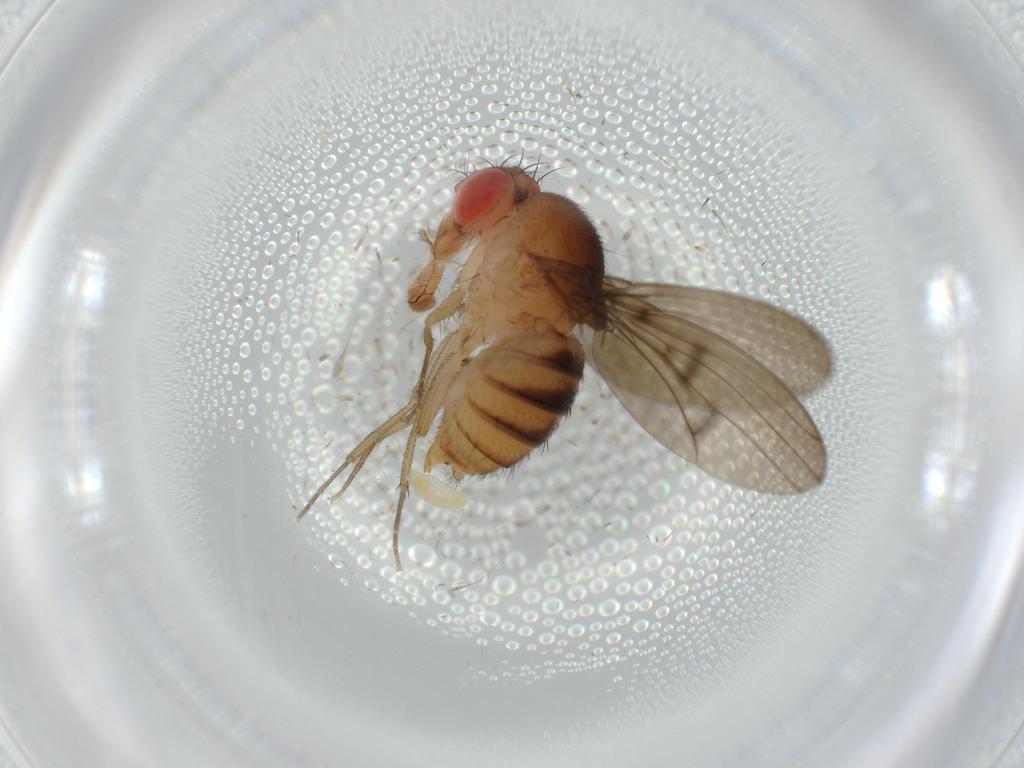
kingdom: Animalia
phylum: Arthropoda
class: Insecta
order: Diptera
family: Drosophilidae
